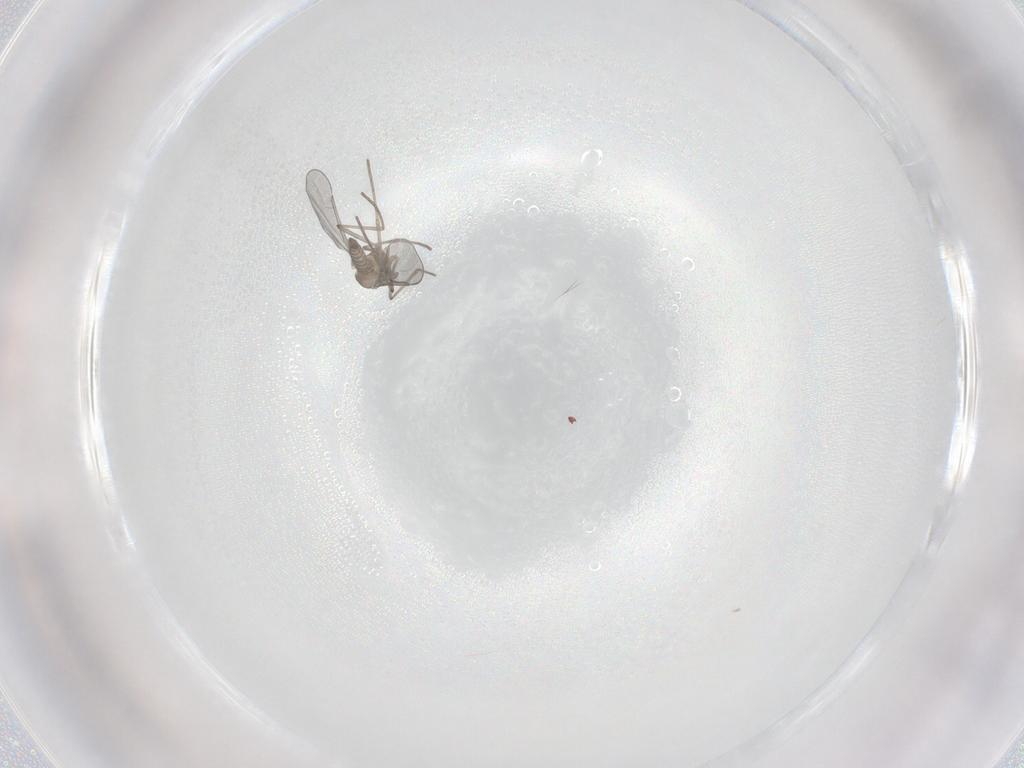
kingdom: Animalia
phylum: Arthropoda
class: Insecta
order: Diptera
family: Cecidomyiidae
